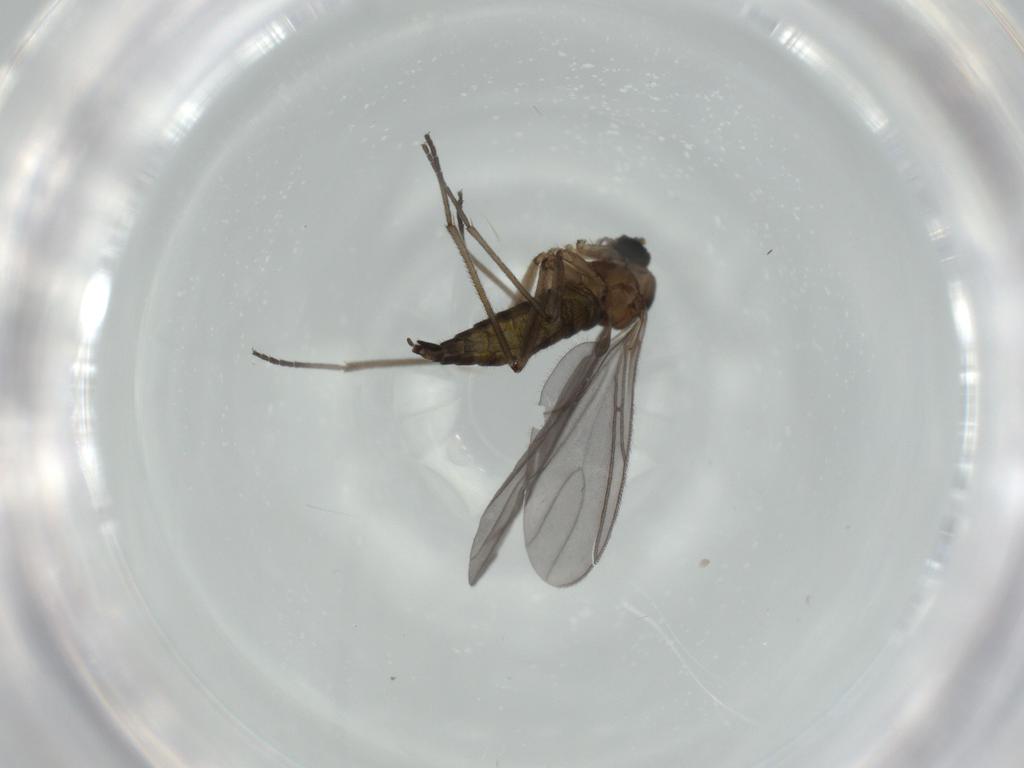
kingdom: Animalia
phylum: Arthropoda
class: Insecta
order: Diptera
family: Sciaridae
